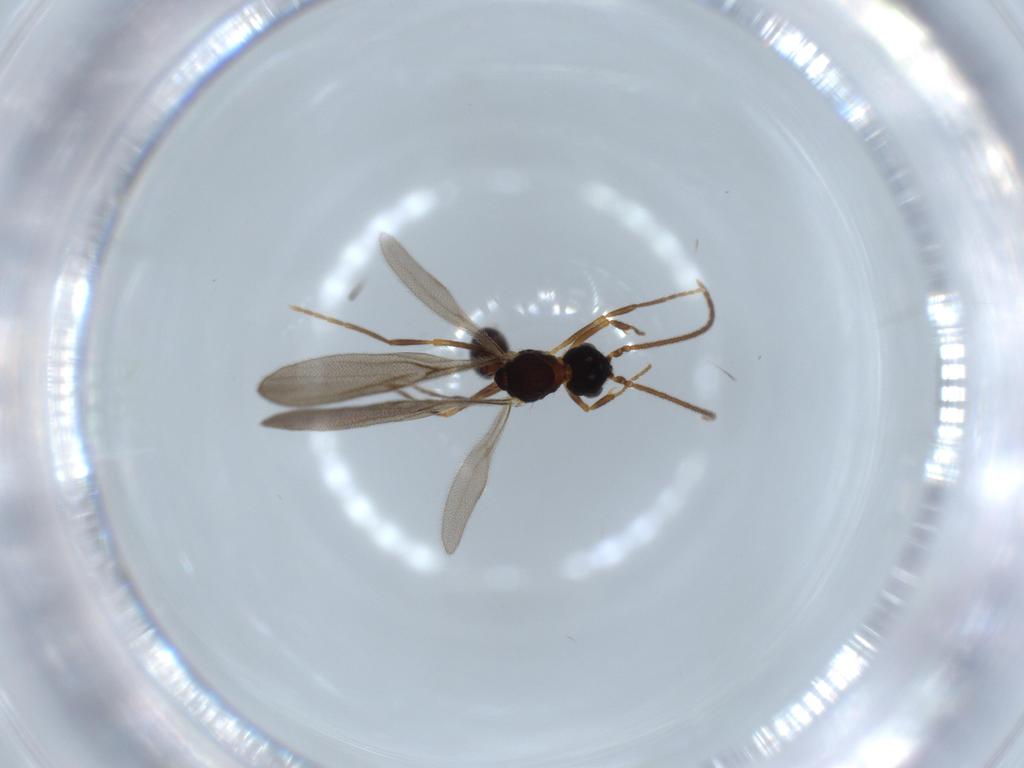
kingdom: Animalia
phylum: Arthropoda
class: Insecta
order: Hymenoptera
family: Formicidae
